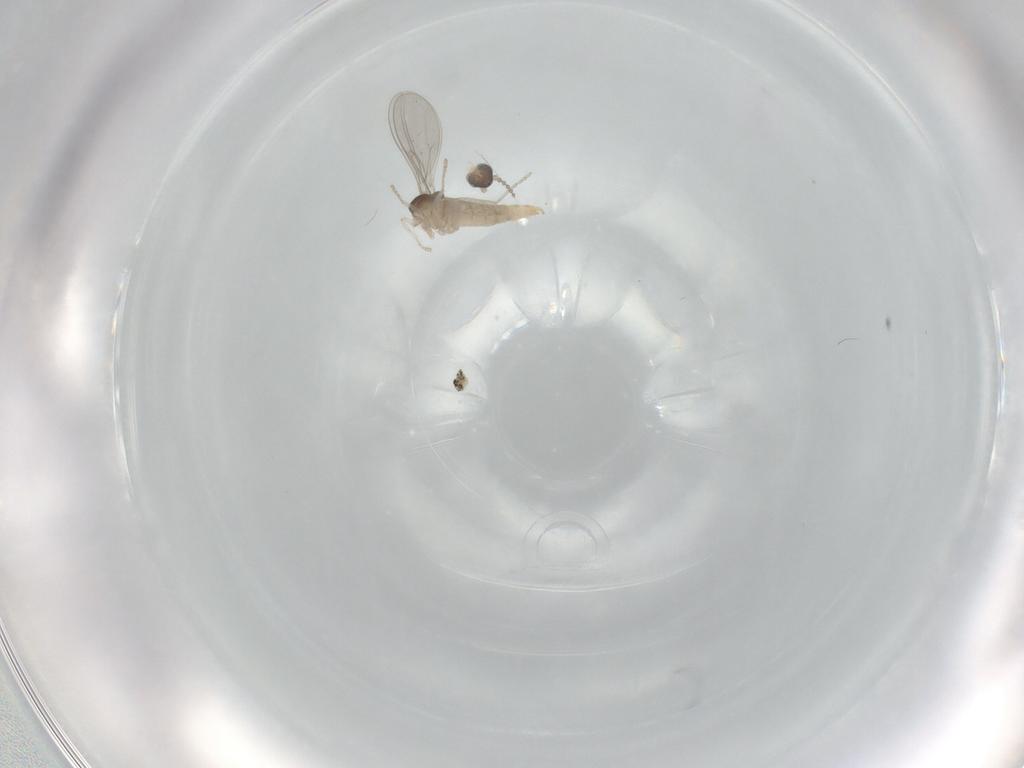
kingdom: Animalia
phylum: Arthropoda
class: Insecta
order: Diptera
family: Cecidomyiidae
